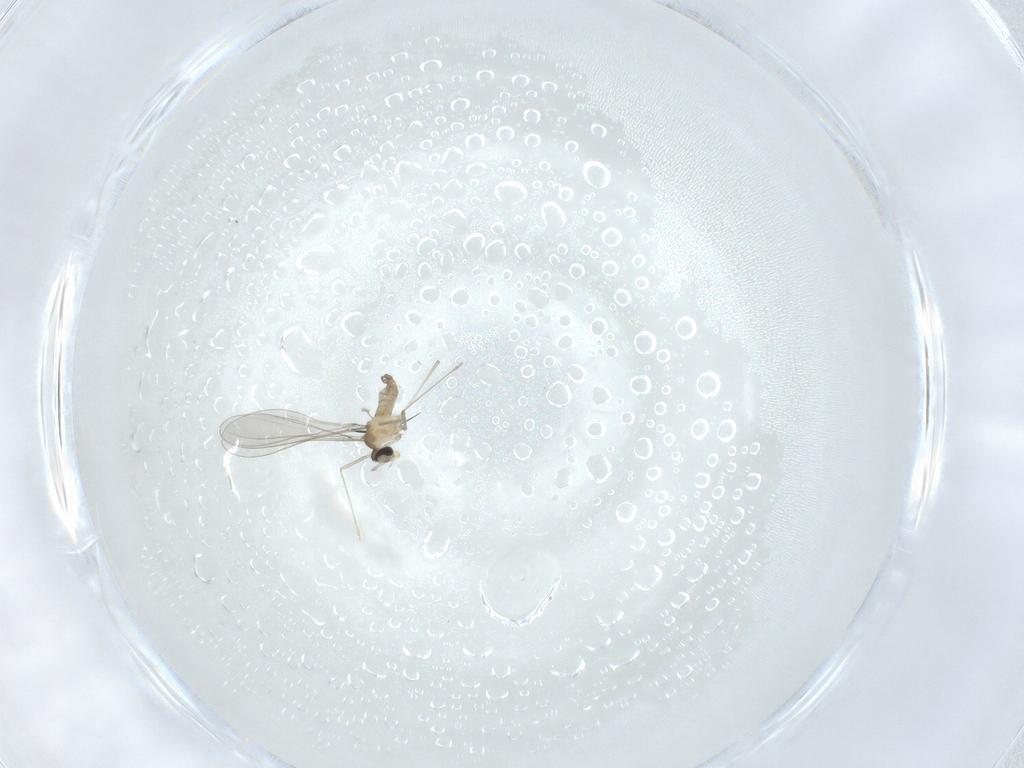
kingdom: Animalia
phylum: Arthropoda
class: Insecta
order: Diptera
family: Cecidomyiidae
